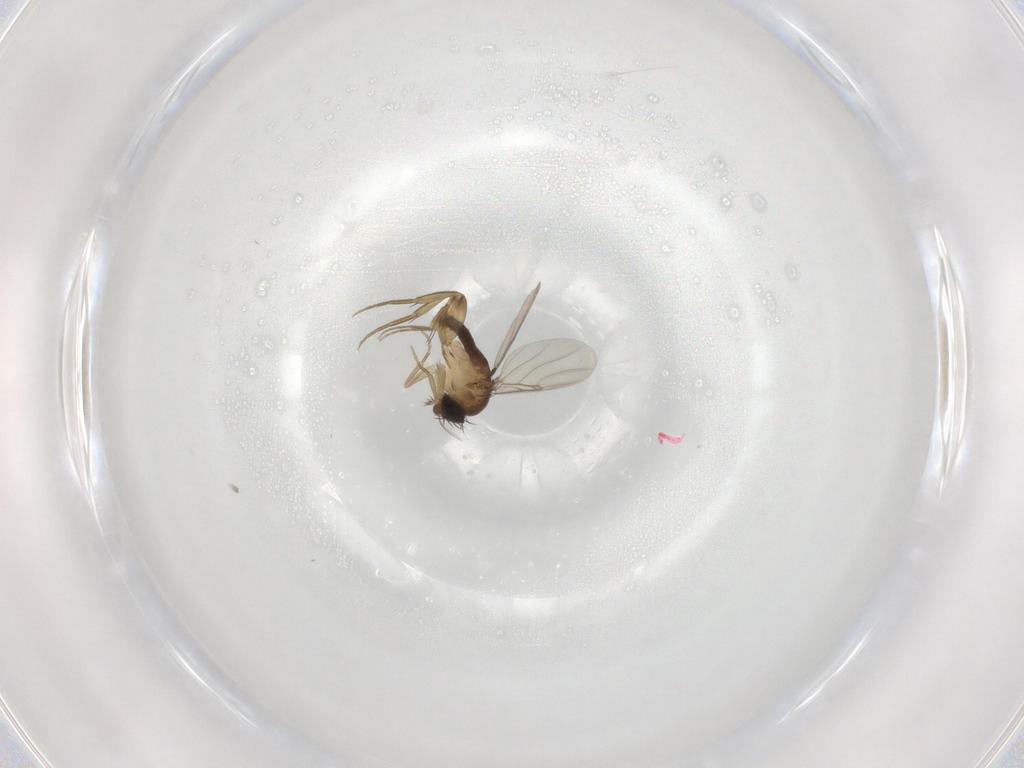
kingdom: Animalia
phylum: Arthropoda
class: Insecta
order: Diptera
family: Phoridae
